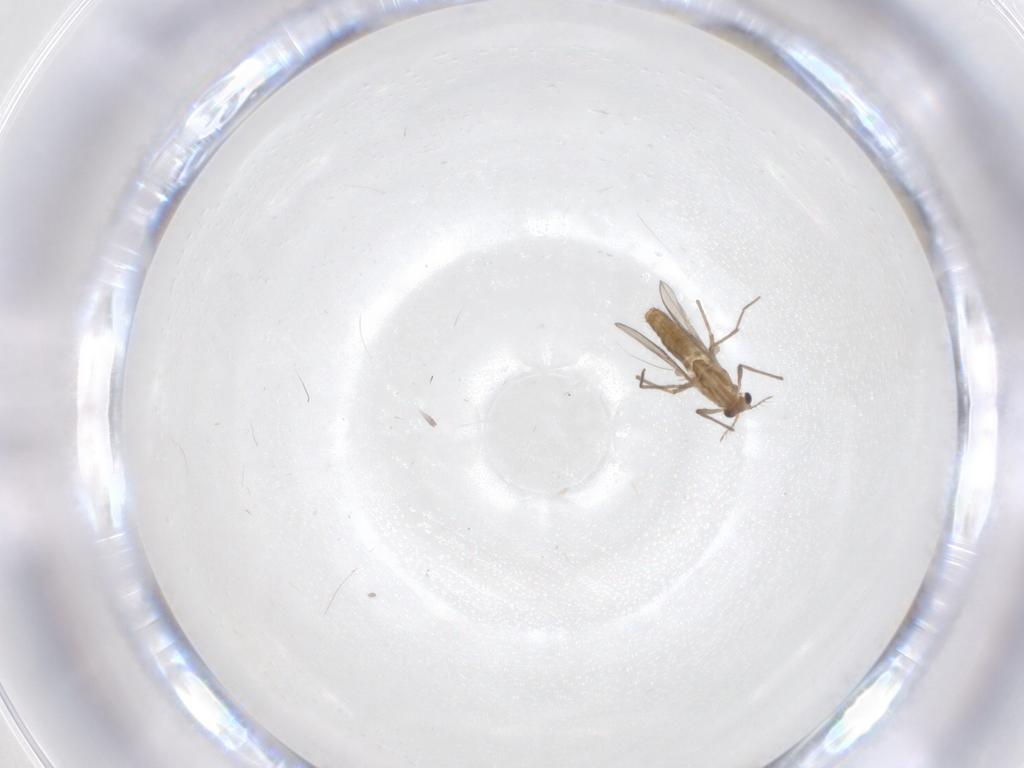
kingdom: Animalia
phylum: Arthropoda
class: Insecta
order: Diptera
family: Chironomidae
